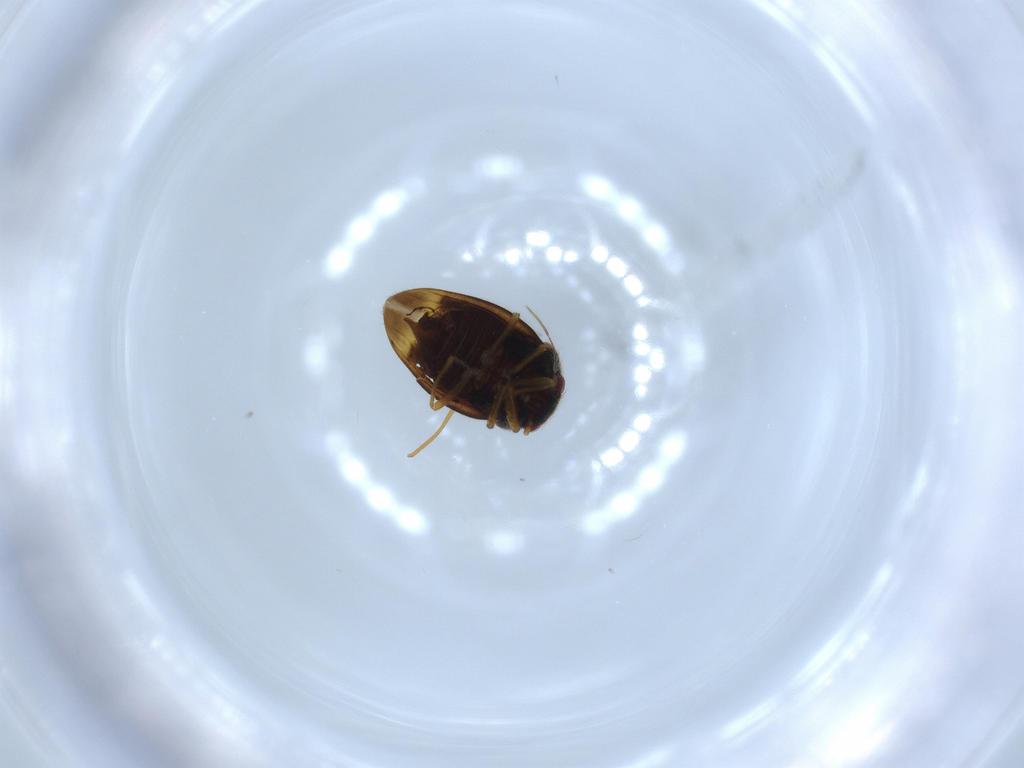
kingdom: Animalia
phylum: Arthropoda
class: Insecta
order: Hemiptera
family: Schizopteridae
